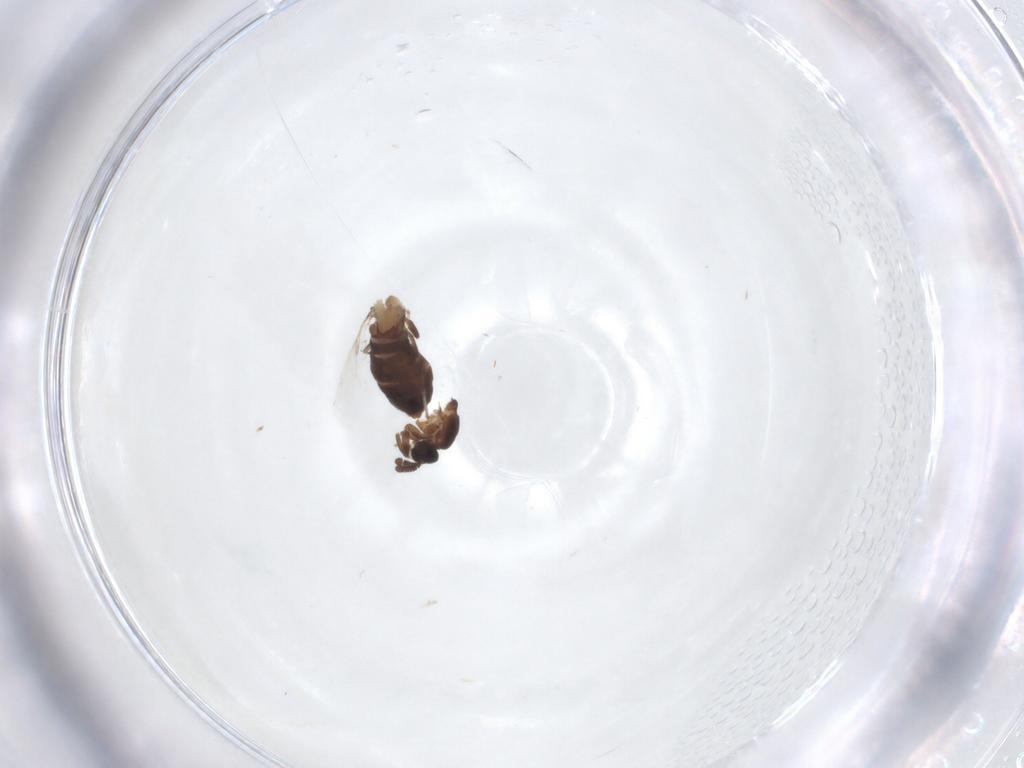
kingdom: Animalia
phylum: Arthropoda
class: Insecta
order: Diptera
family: Scatopsidae
